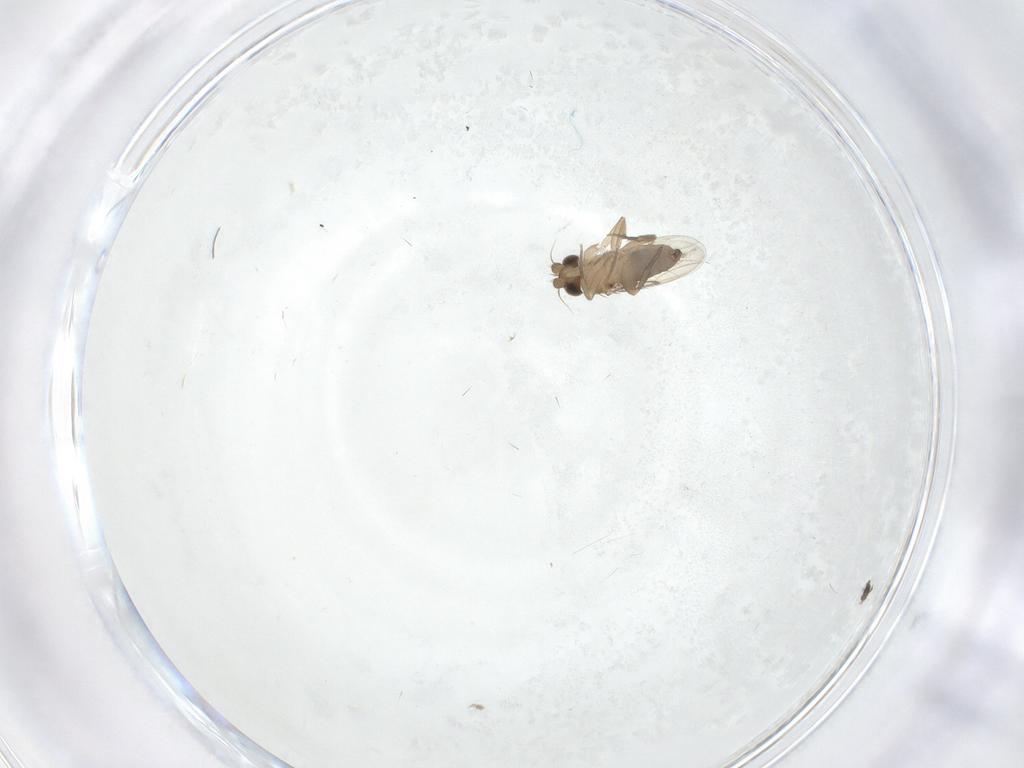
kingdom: Animalia
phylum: Arthropoda
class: Insecta
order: Diptera
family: Phoridae
